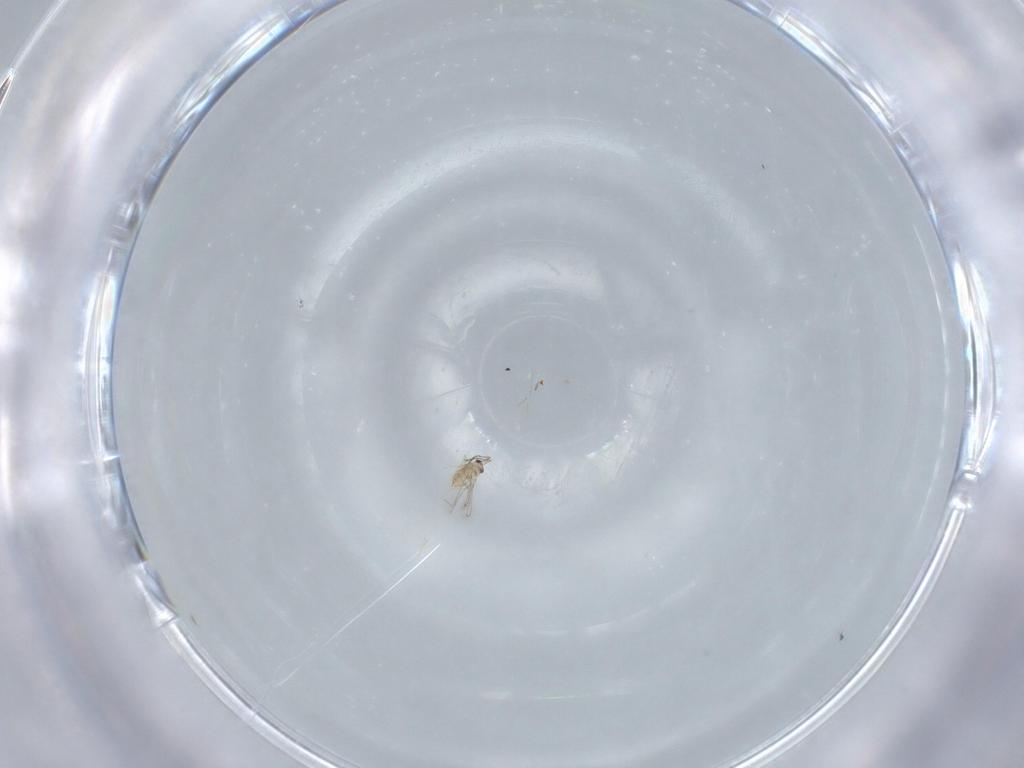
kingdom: Animalia
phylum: Arthropoda
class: Insecta
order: Hymenoptera
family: Mymaridae
